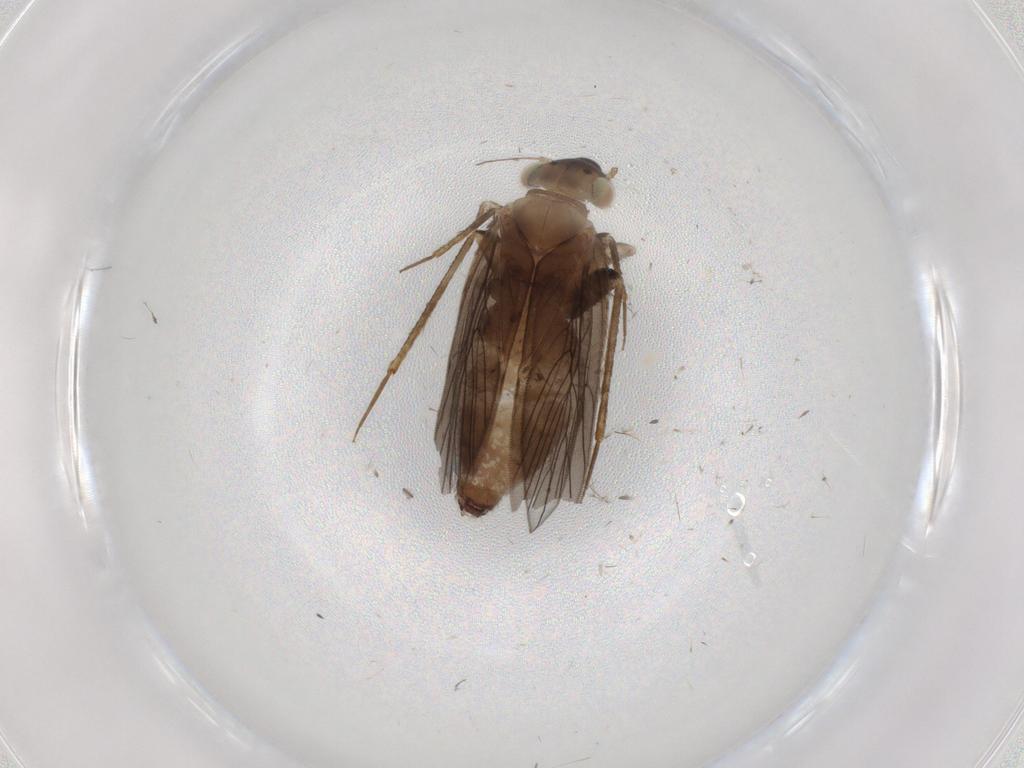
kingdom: Animalia
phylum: Arthropoda
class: Insecta
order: Psocodea
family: Lepidopsocidae
